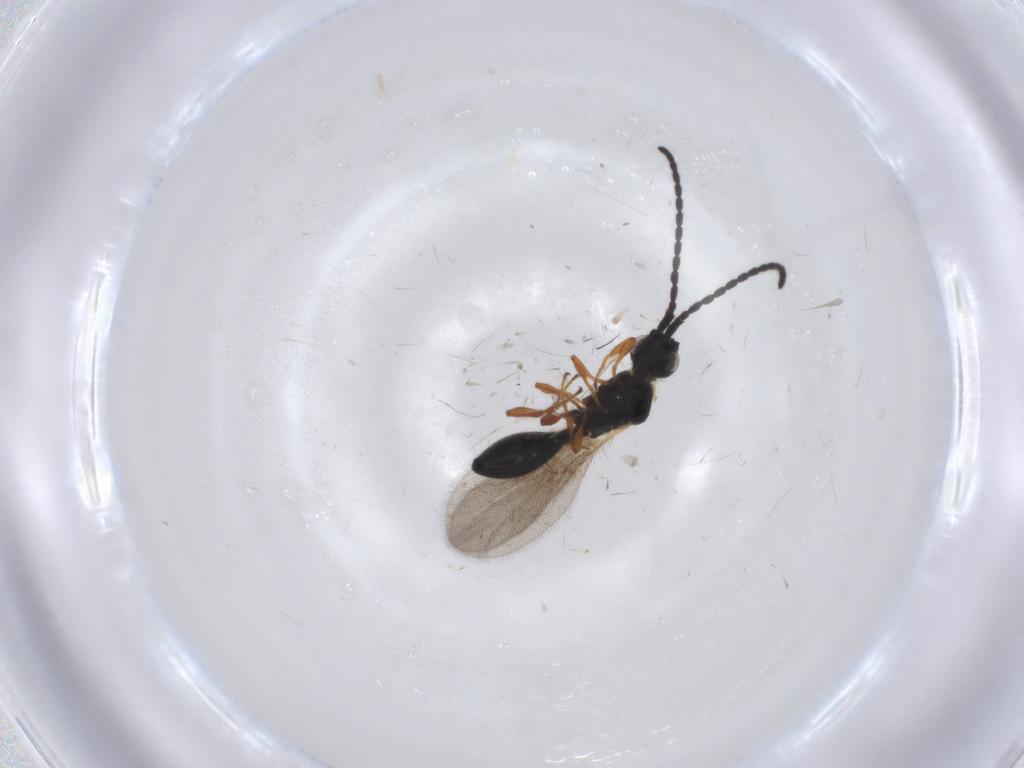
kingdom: Animalia
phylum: Arthropoda
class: Insecta
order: Hymenoptera
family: Diapriidae
